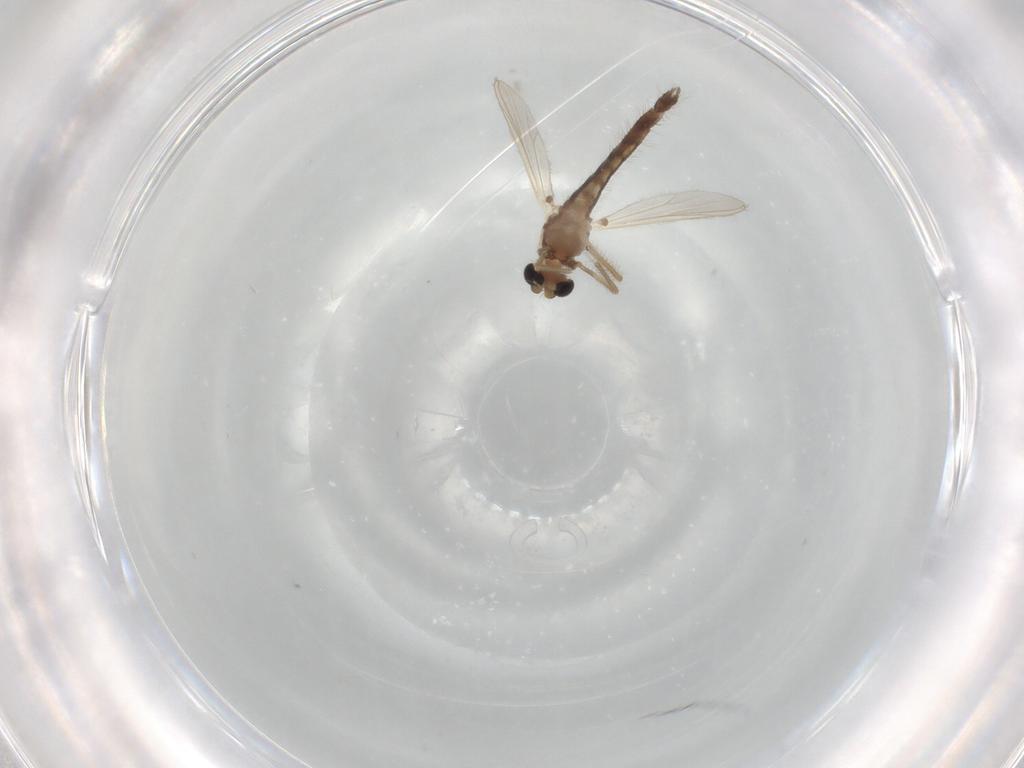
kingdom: Animalia
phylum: Arthropoda
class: Insecta
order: Diptera
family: Chironomidae
